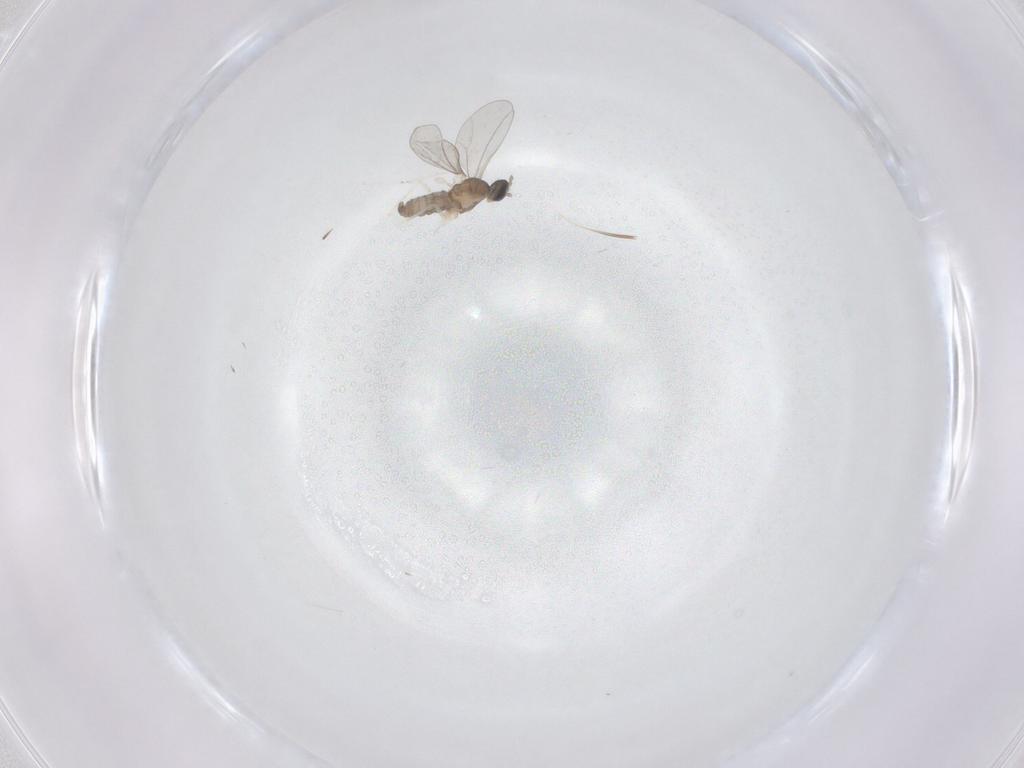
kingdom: Animalia
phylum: Arthropoda
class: Insecta
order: Diptera
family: Cecidomyiidae
